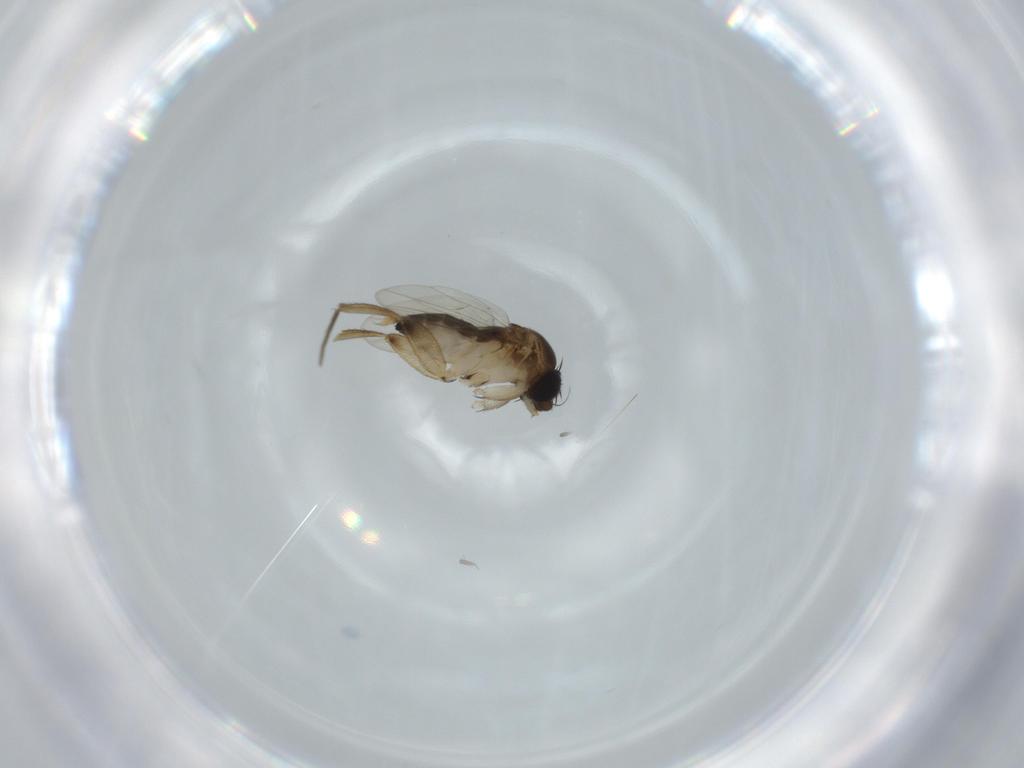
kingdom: Animalia
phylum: Arthropoda
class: Insecta
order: Diptera
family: Phoridae
